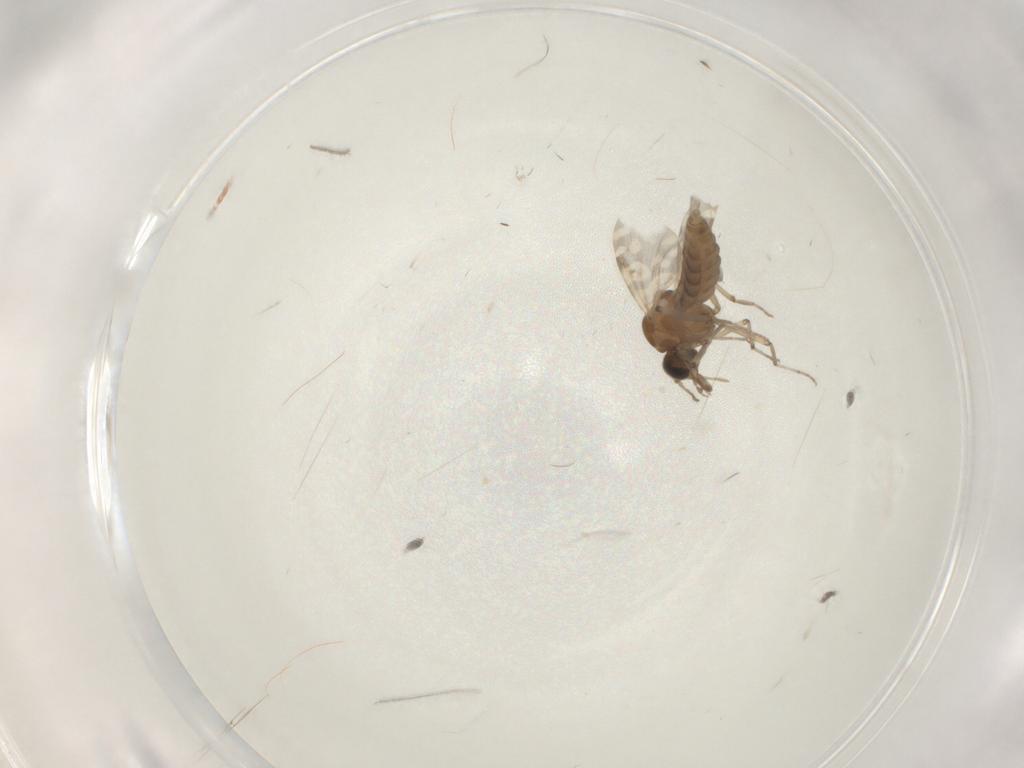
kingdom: Animalia
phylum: Arthropoda
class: Insecta
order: Diptera
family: Chironomidae
